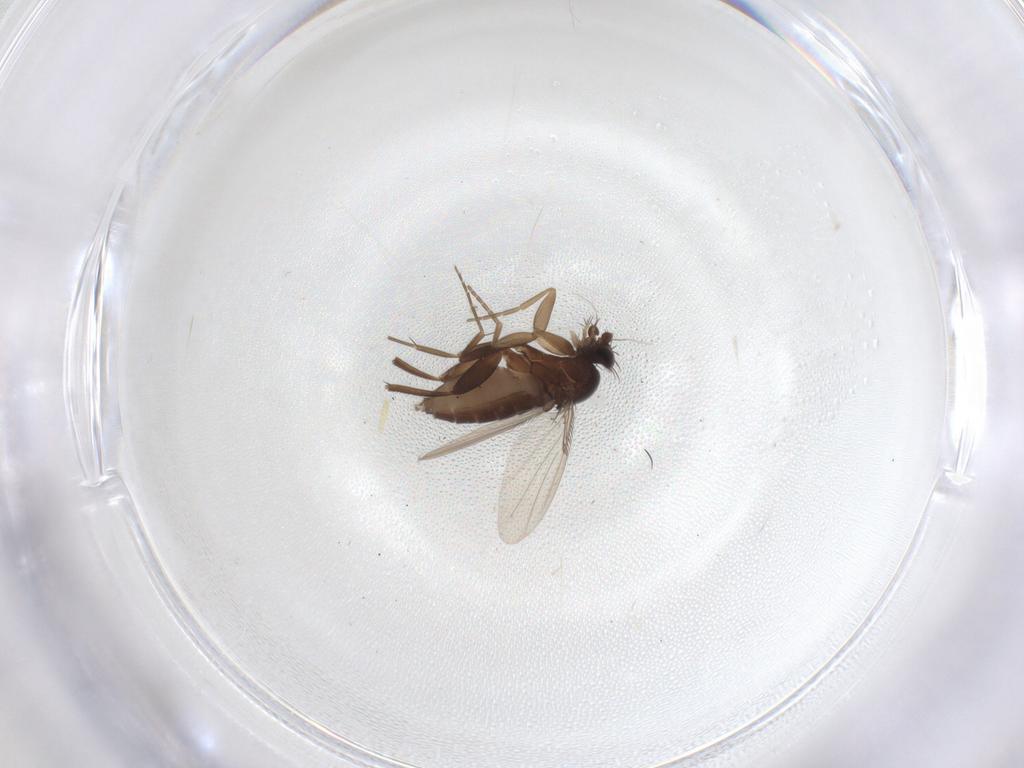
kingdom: Animalia
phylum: Arthropoda
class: Insecta
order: Diptera
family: Phoridae
